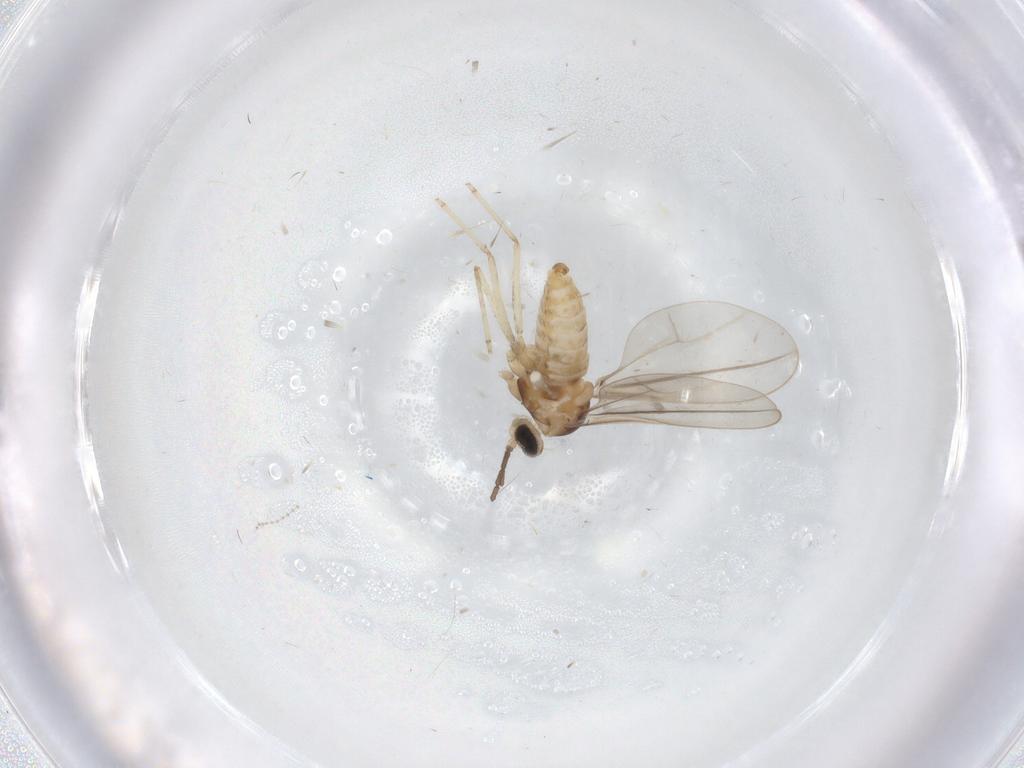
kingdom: Animalia
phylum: Arthropoda
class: Insecta
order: Diptera
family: Cecidomyiidae
